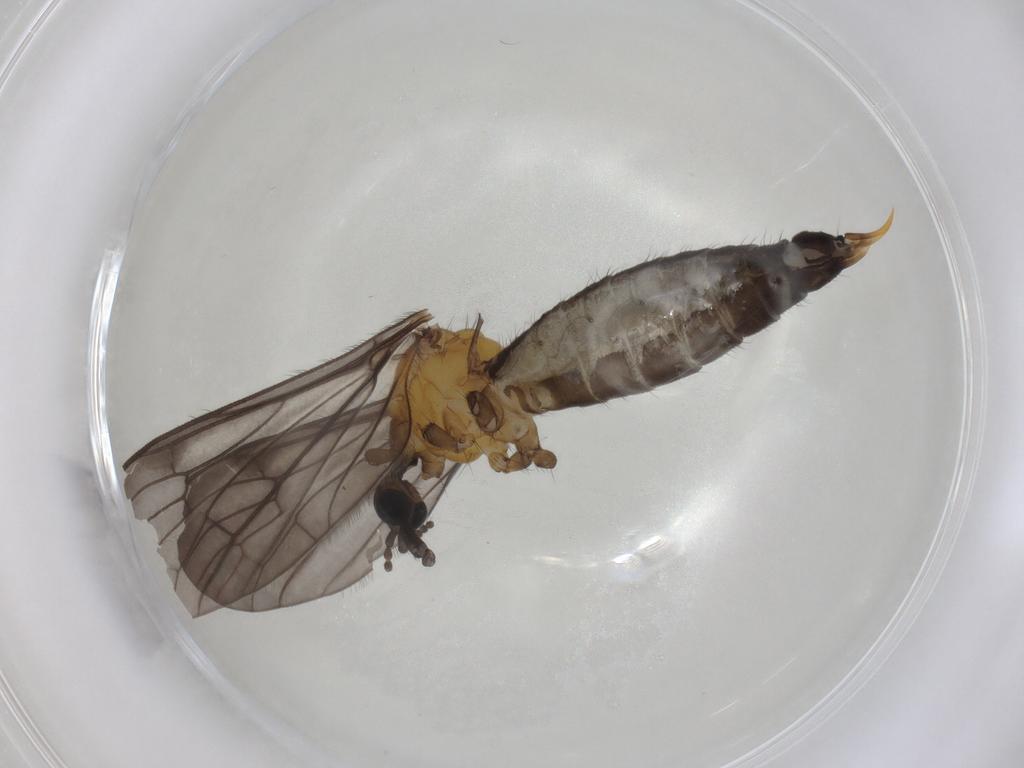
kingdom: Animalia
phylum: Arthropoda
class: Insecta
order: Diptera
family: Limoniidae
